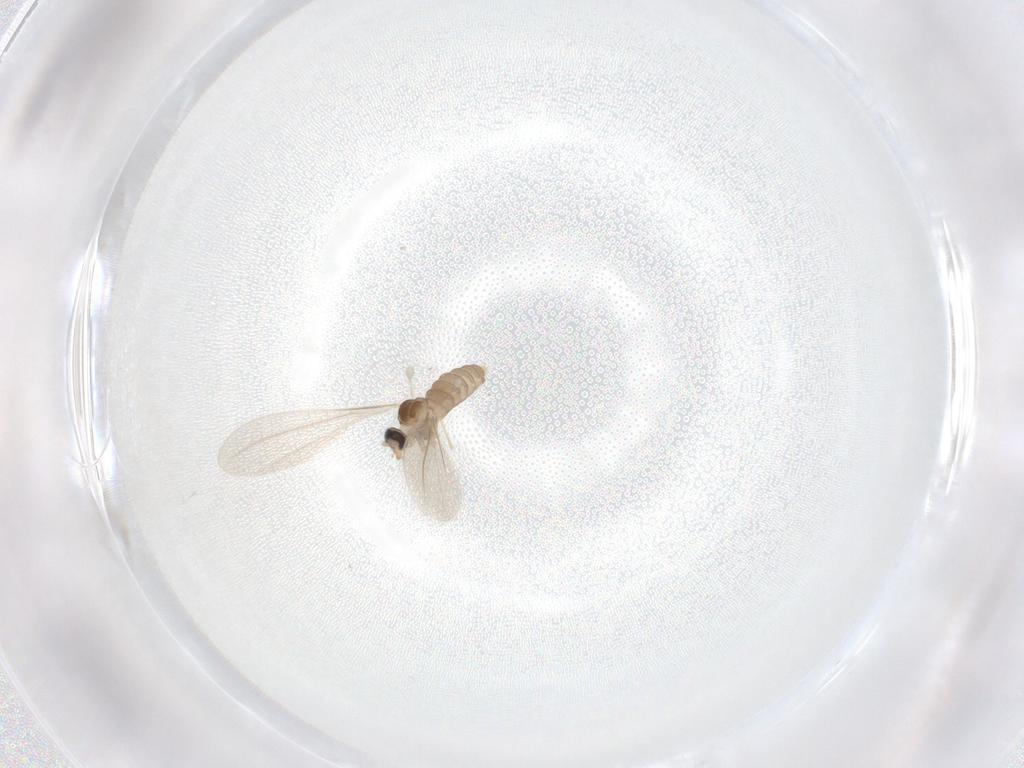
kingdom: Animalia
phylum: Arthropoda
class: Insecta
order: Diptera
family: Cecidomyiidae
